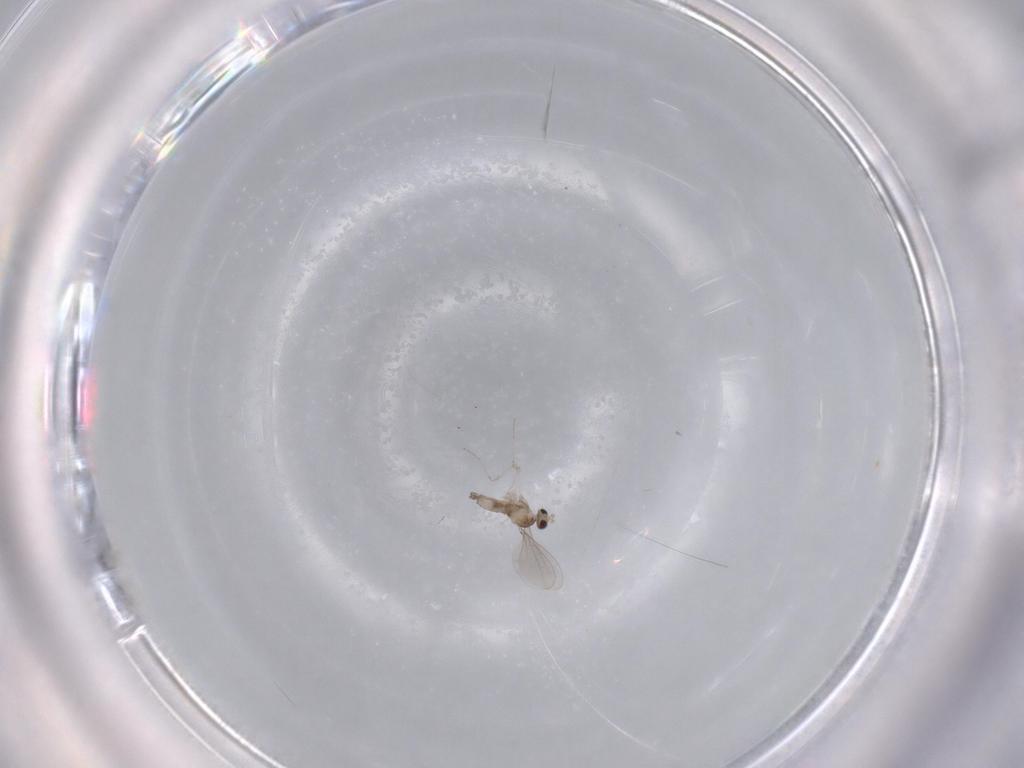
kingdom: Animalia
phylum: Arthropoda
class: Insecta
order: Diptera
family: Cecidomyiidae
